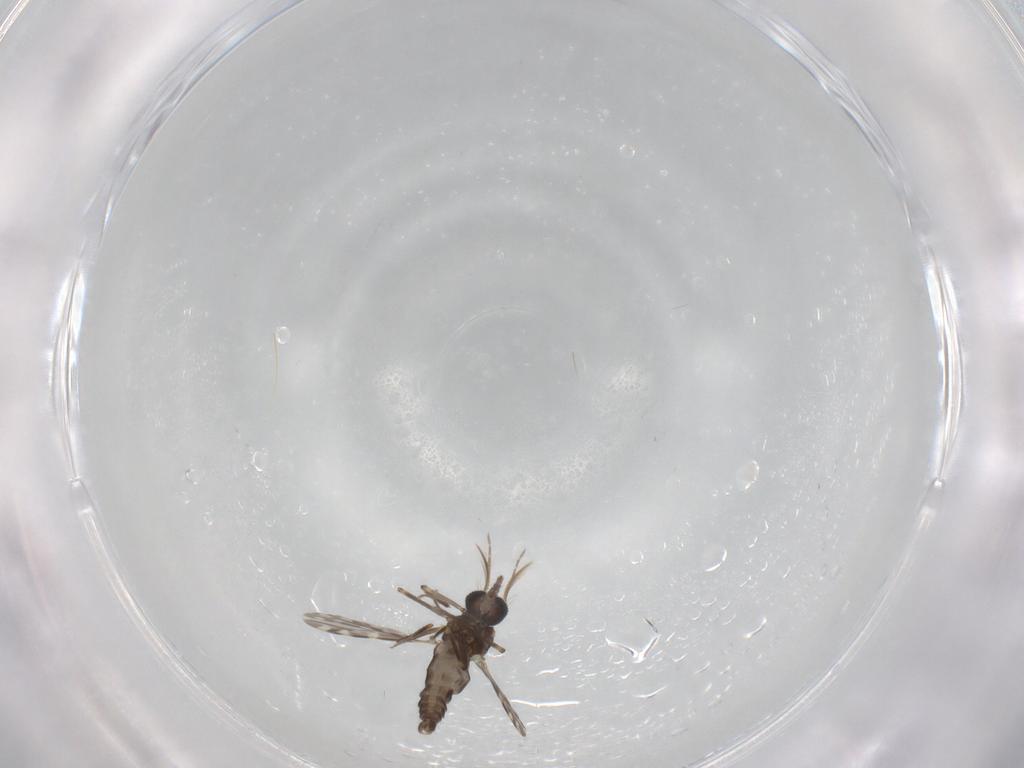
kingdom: Animalia
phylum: Arthropoda
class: Insecta
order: Diptera
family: Ceratopogonidae
